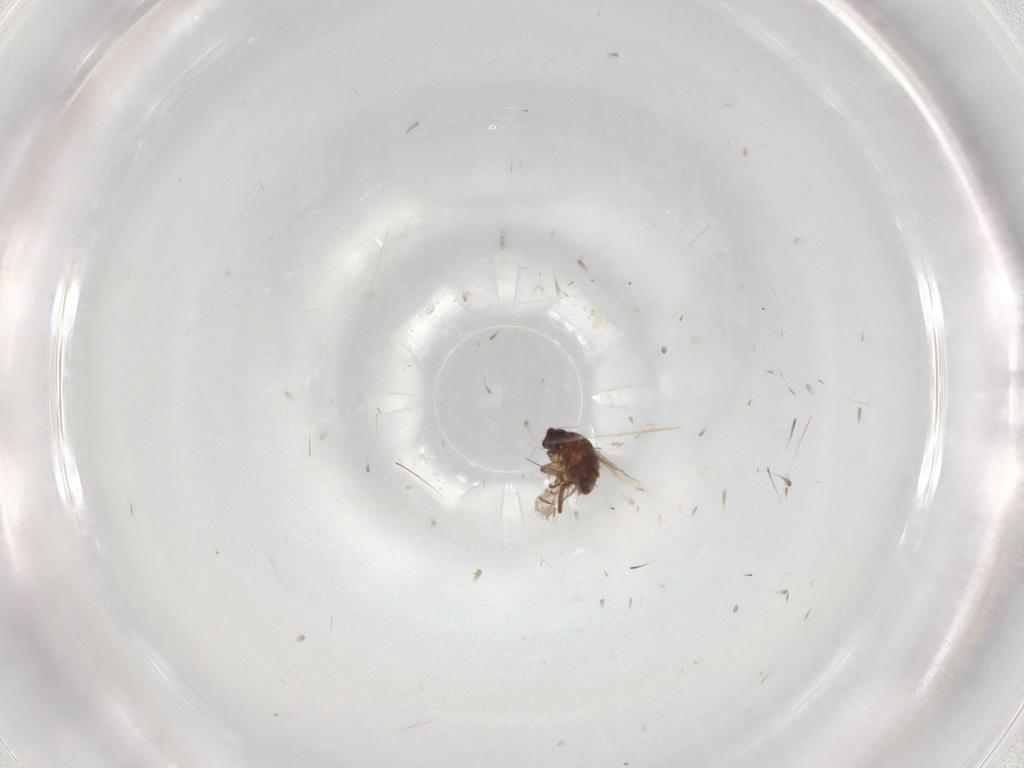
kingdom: Animalia
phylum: Arthropoda
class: Insecta
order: Diptera
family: Sphaeroceridae
